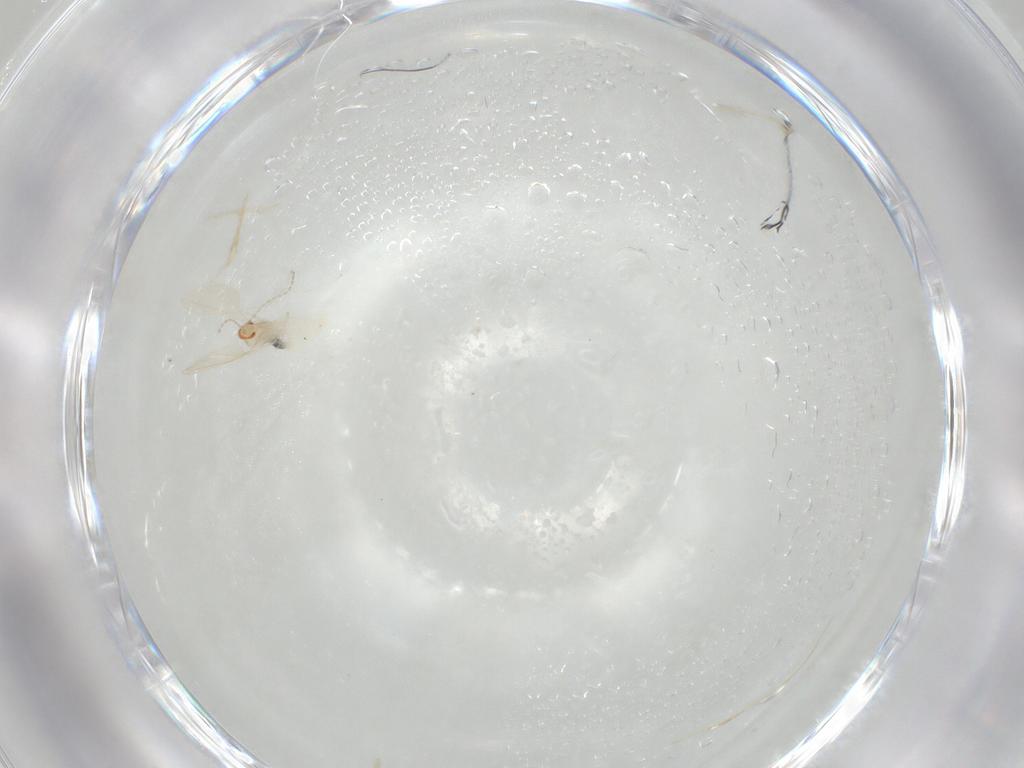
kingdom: Animalia
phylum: Arthropoda
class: Insecta
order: Diptera
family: Cecidomyiidae
